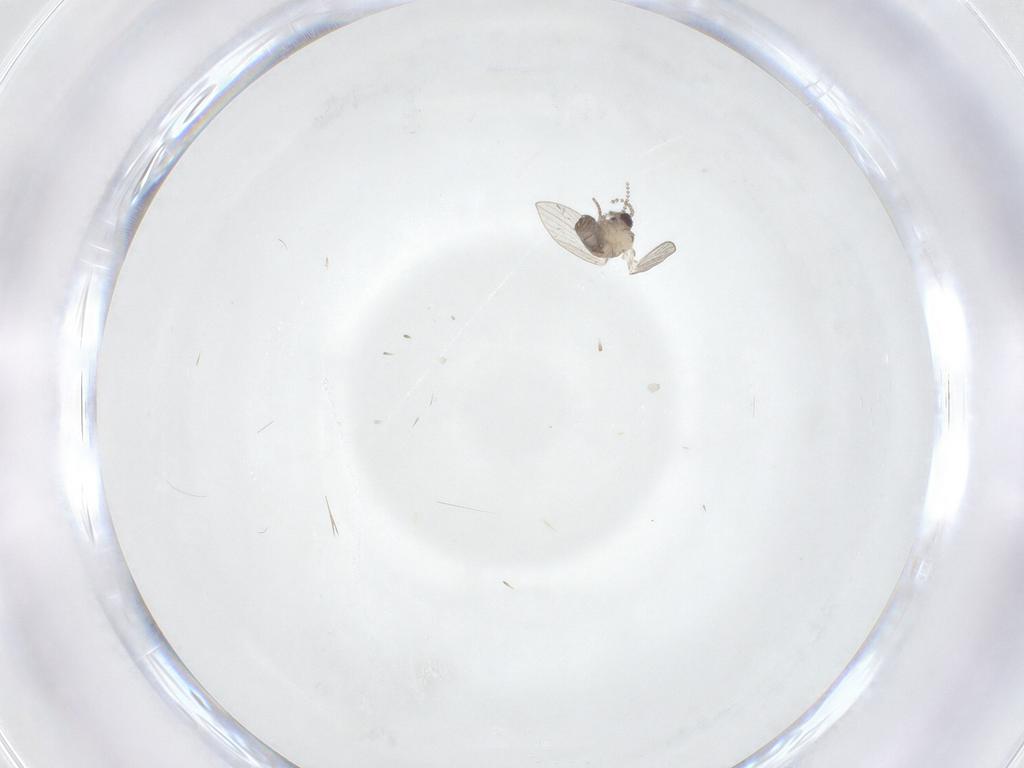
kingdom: Animalia
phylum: Arthropoda
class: Insecta
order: Diptera
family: Psychodidae
